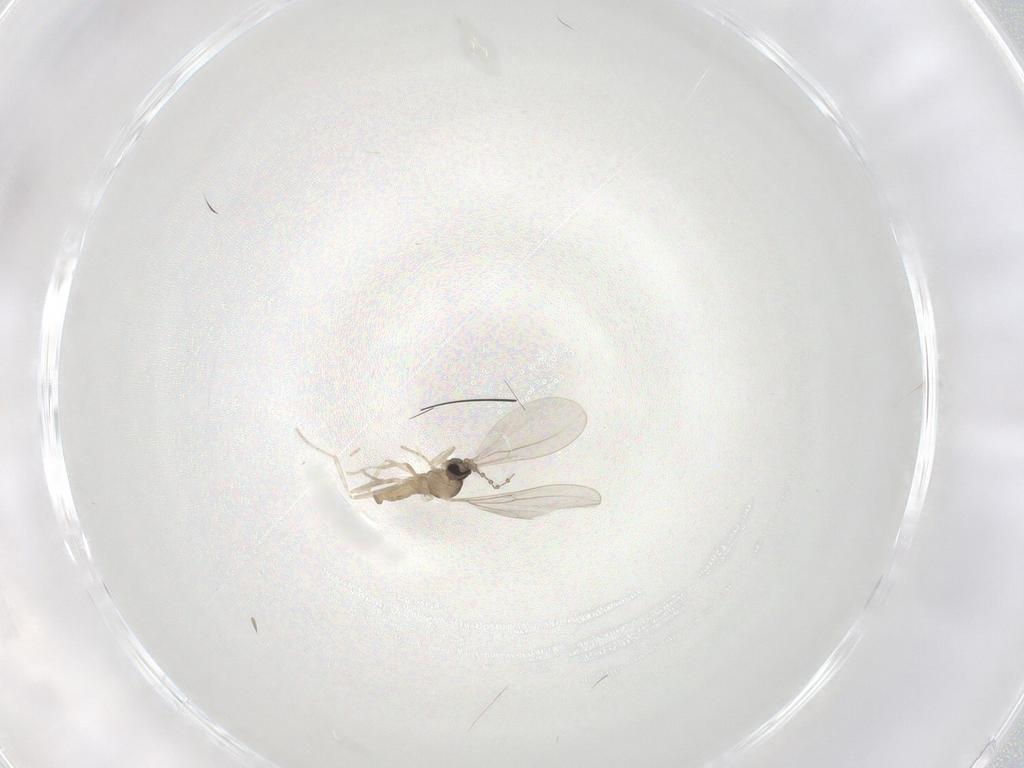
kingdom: Animalia
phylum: Arthropoda
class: Insecta
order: Diptera
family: Cecidomyiidae
